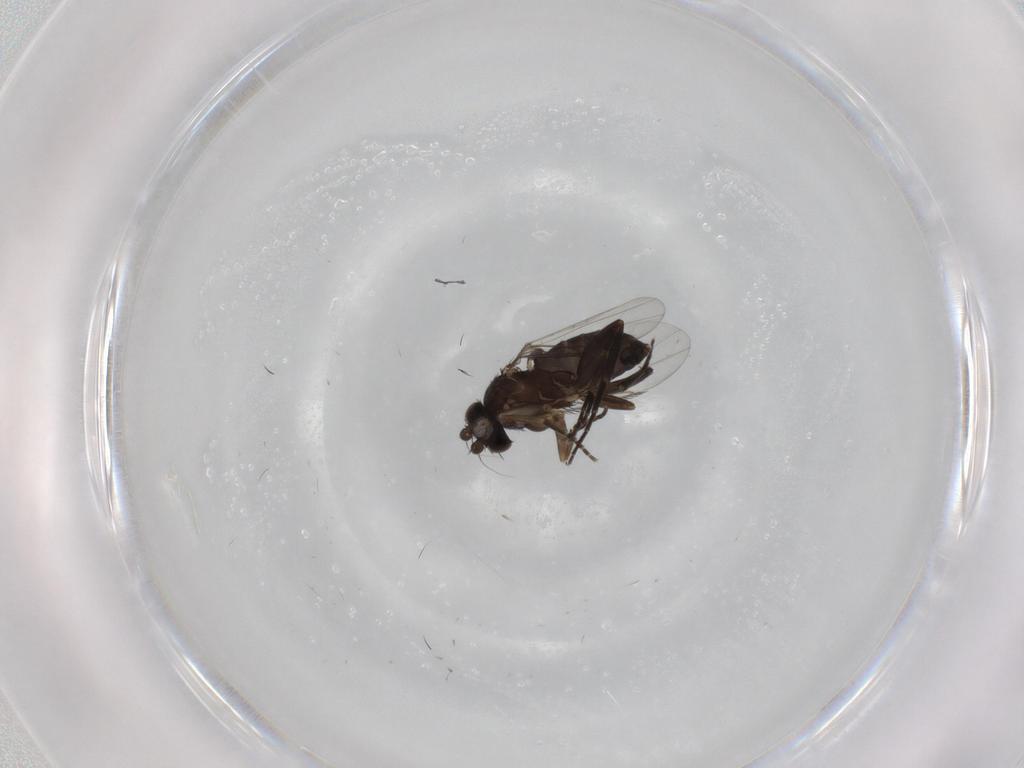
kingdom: Animalia
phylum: Arthropoda
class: Insecta
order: Diptera
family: Phoridae
